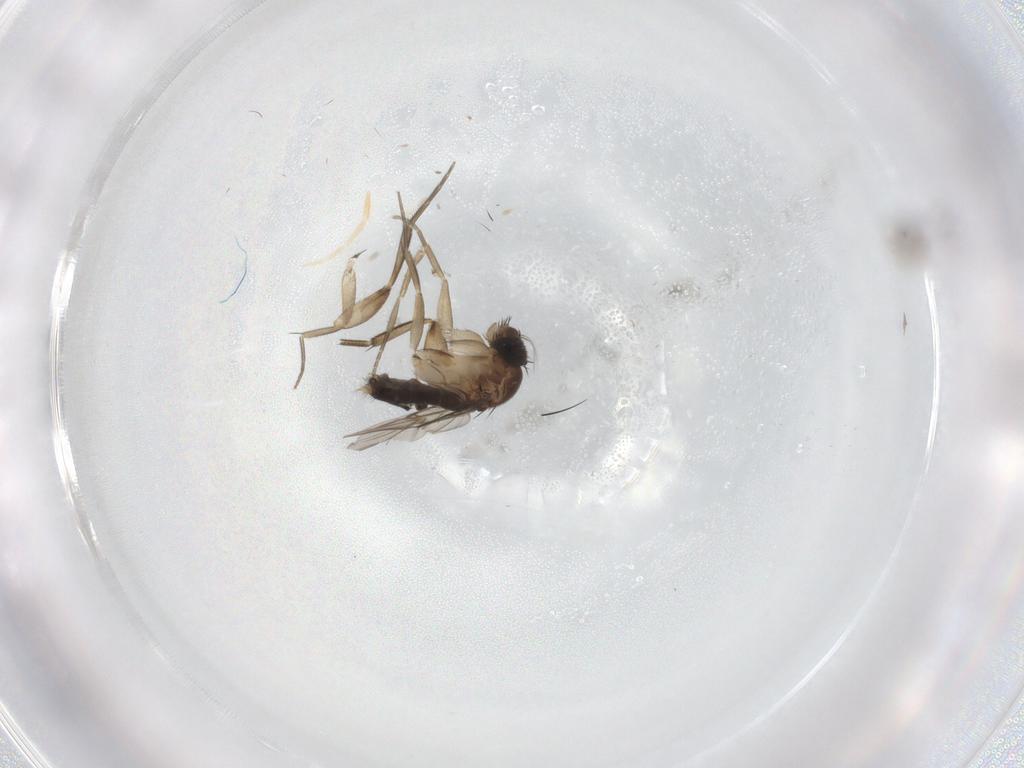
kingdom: Animalia
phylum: Arthropoda
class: Insecta
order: Diptera
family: Phoridae
